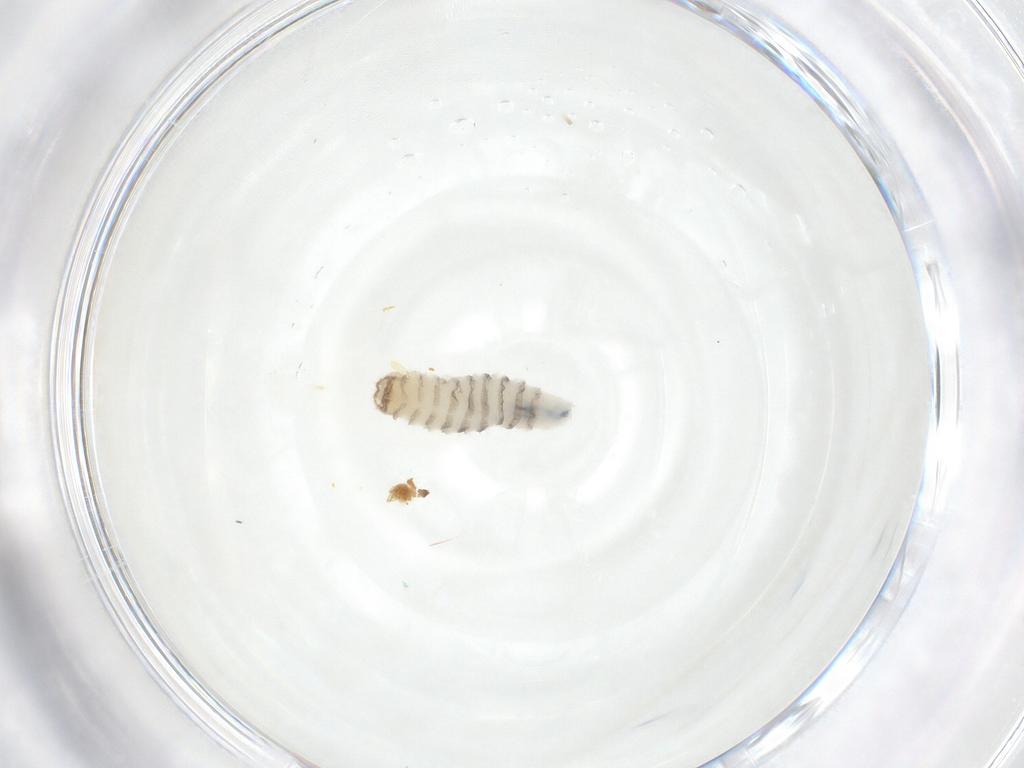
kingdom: Animalia
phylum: Arthropoda
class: Insecta
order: Diptera
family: Sarcophagidae
